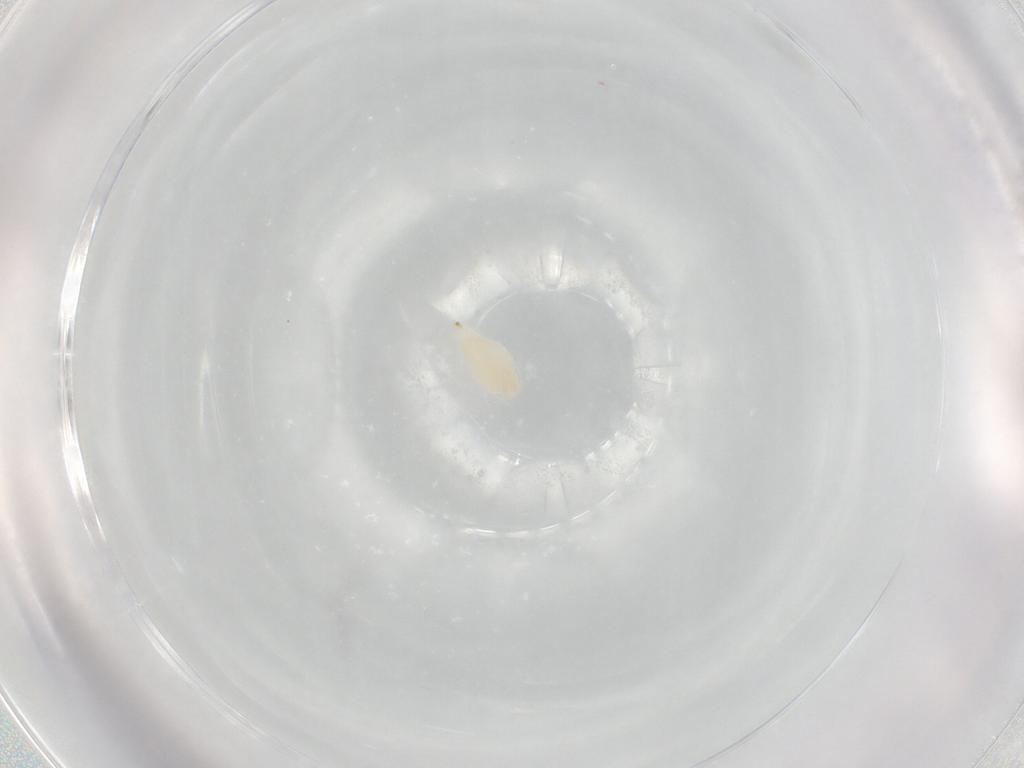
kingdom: Animalia
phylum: Arthropoda
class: Insecta
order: Hymenoptera
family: Ichneumonidae
